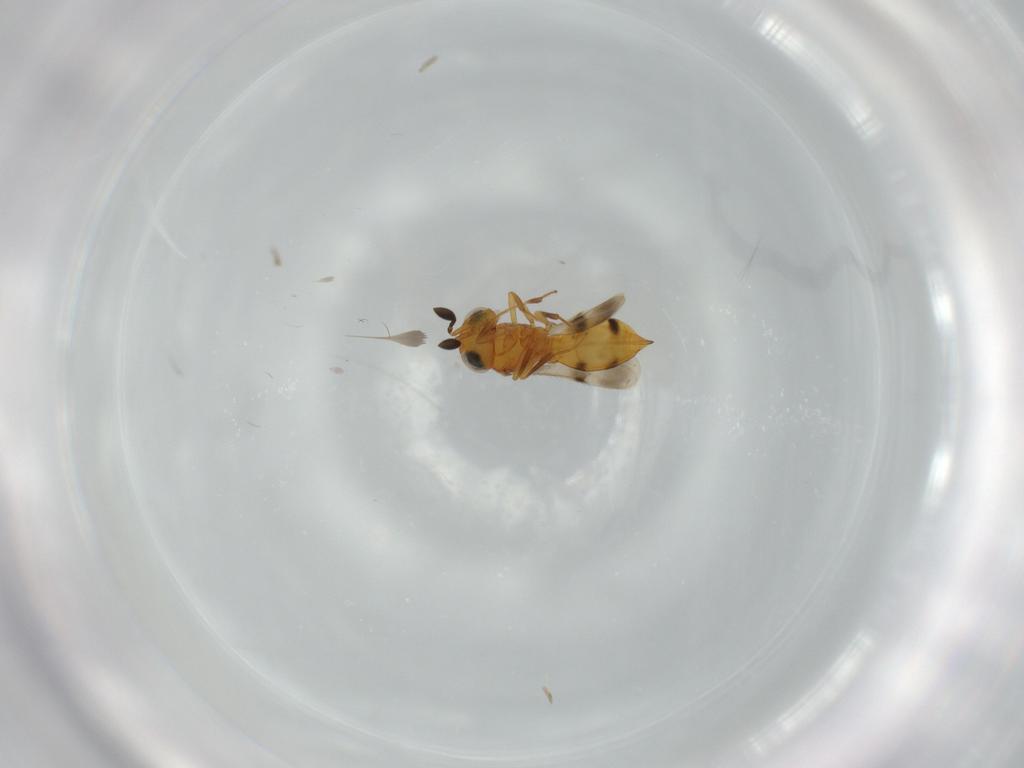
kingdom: Animalia
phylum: Arthropoda
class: Insecta
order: Hymenoptera
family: Scelionidae
